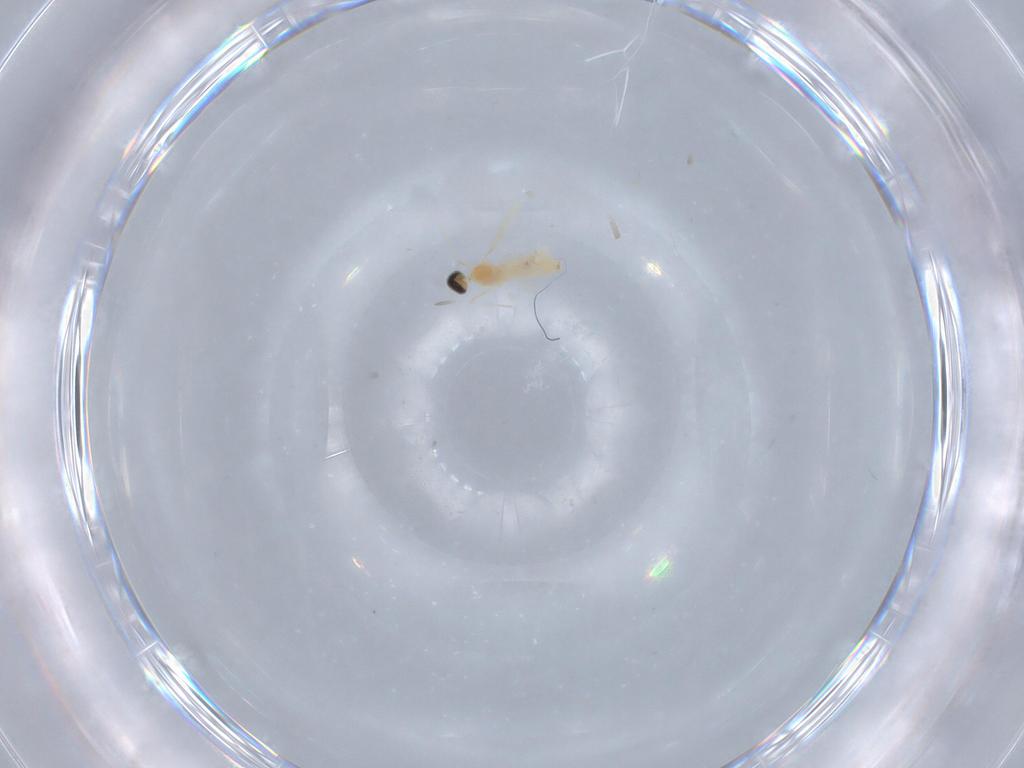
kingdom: Animalia
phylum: Arthropoda
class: Insecta
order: Diptera
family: Cecidomyiidae
